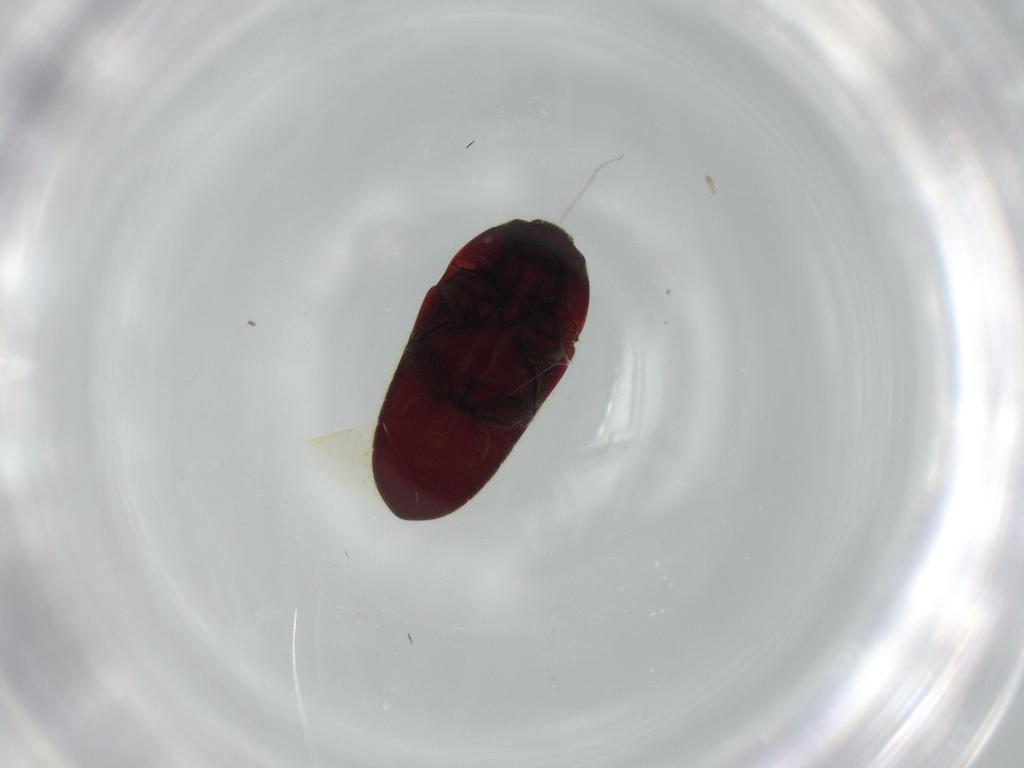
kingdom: Animalia
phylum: Arthropoda
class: Insecta
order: Coleoptera
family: Throscidae
